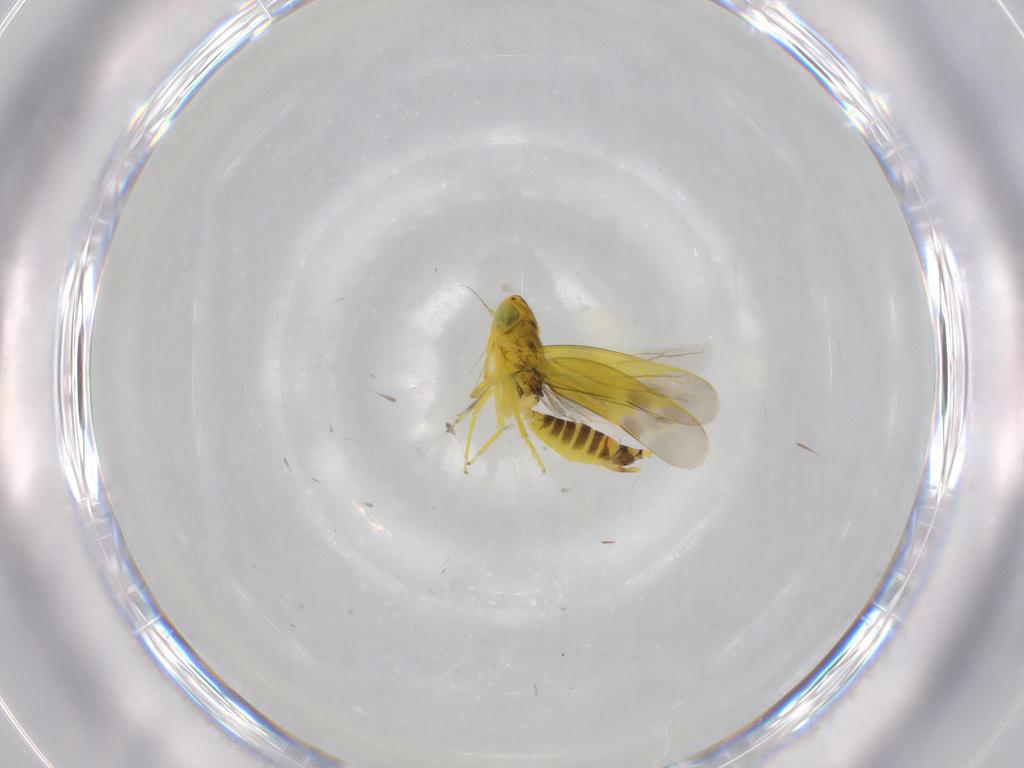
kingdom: Animalia
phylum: Arthropoda
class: Insecta
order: Hemiptera
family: Cicadellidae
